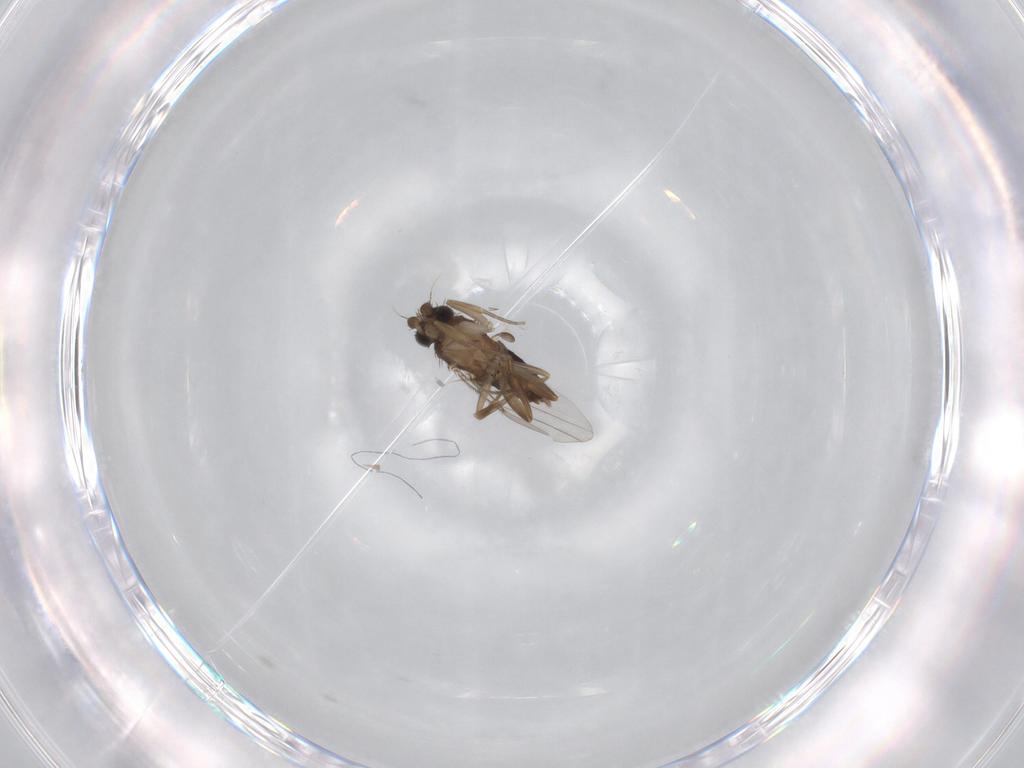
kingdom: Animalia
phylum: Arthropoda
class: Insecta
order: Diptera
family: Phoridae
